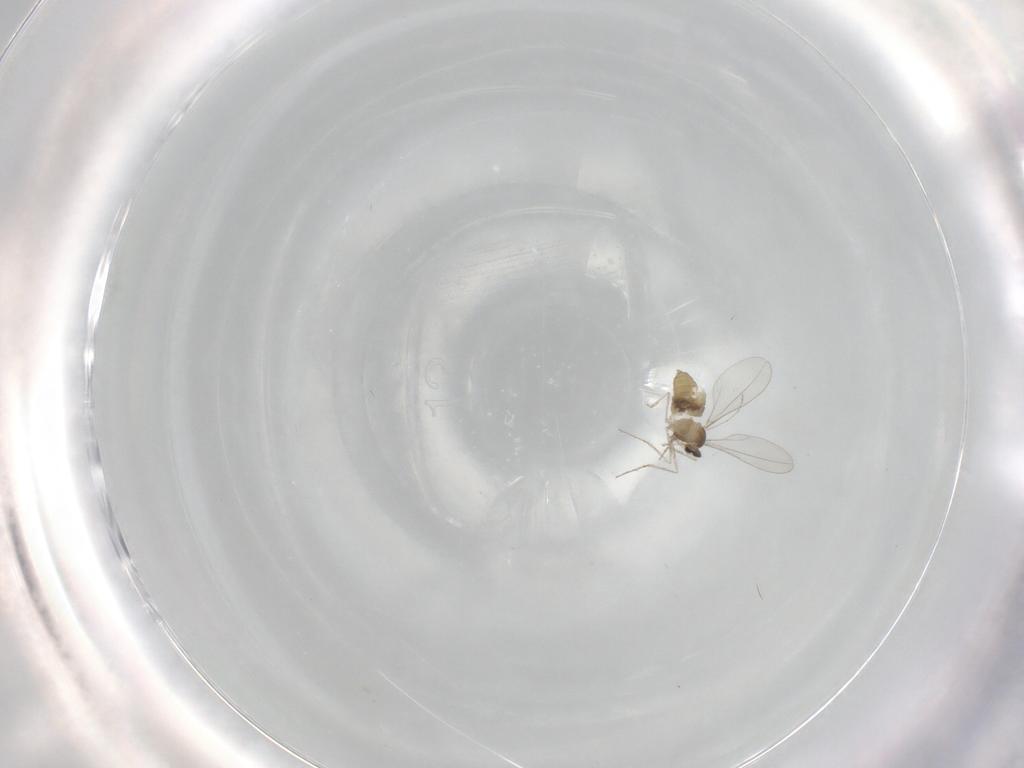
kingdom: Animalia
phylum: Arthropoda
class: Insecta
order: Diptera
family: Cecidomyiidae
